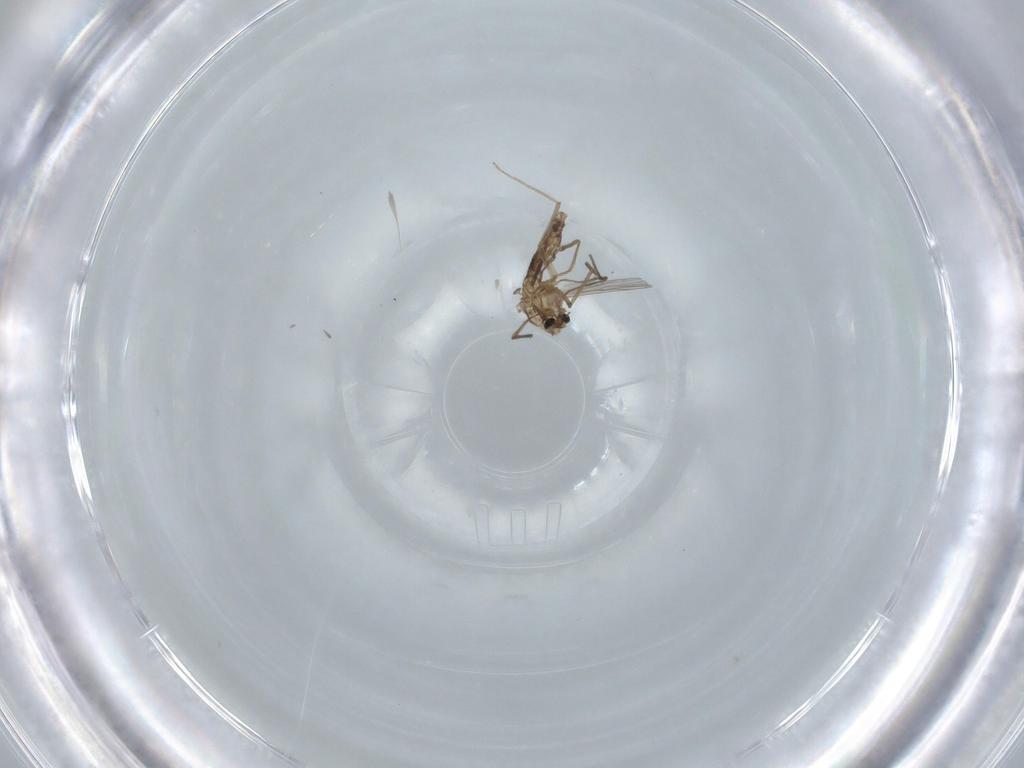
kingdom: Animalia
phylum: Arthropoda
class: Insecta
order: Diptera
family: Chironomidae
